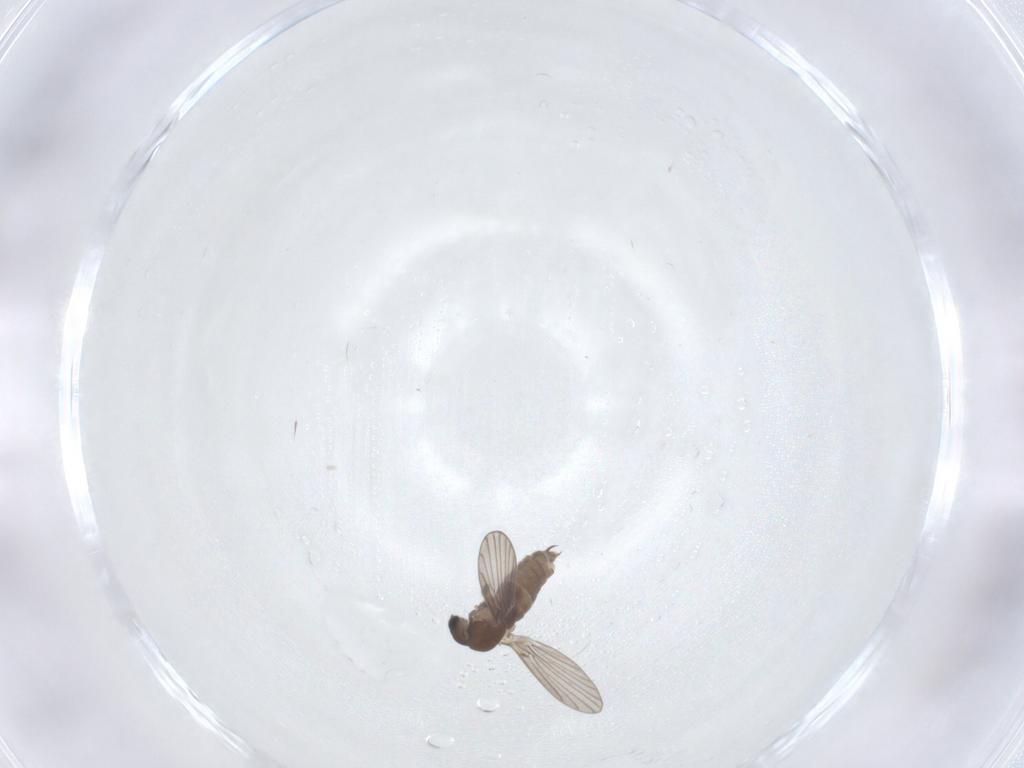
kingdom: Animalia
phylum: Arthropoda
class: Insecta
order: Diptera
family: Psychodidae
